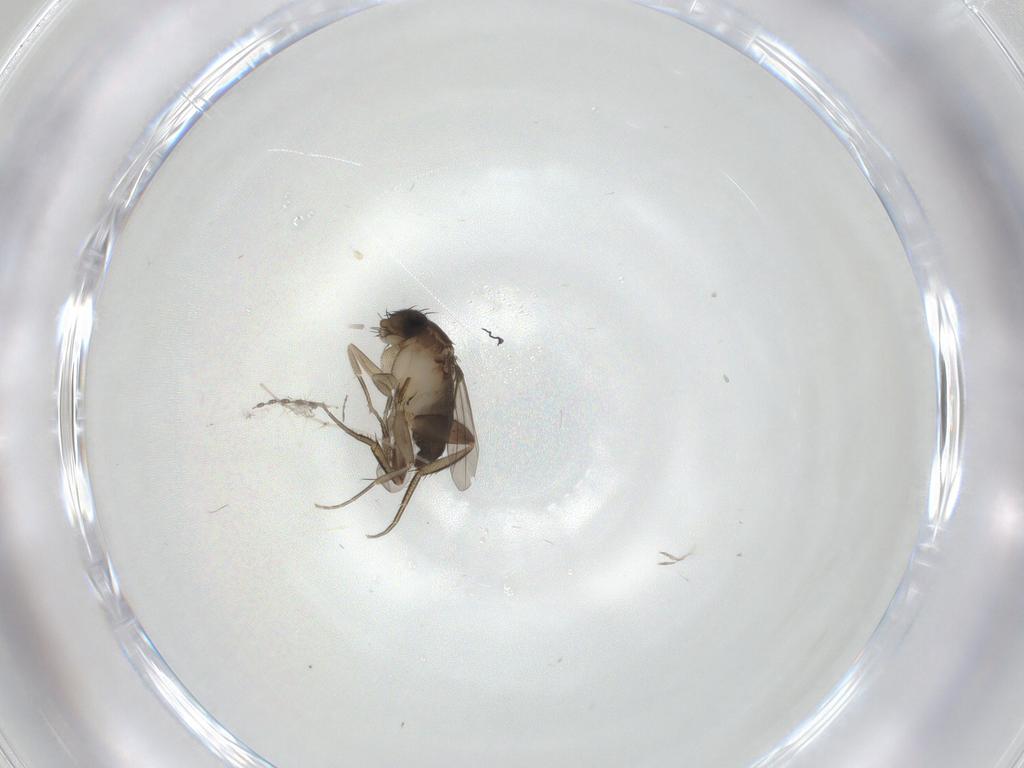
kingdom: Animalia
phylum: Arthropoda
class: Insecta
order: Diptera
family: Phoridae
